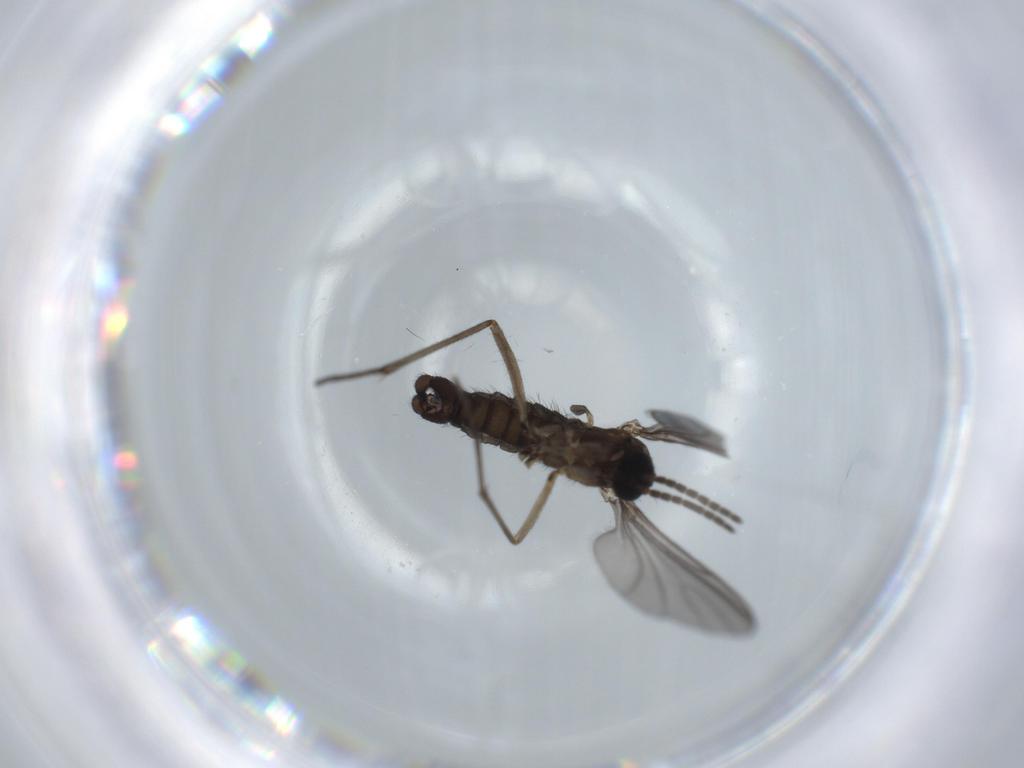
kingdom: Animalia
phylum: Arthropoda
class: Insecta
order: Diptera
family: Sciaridae
